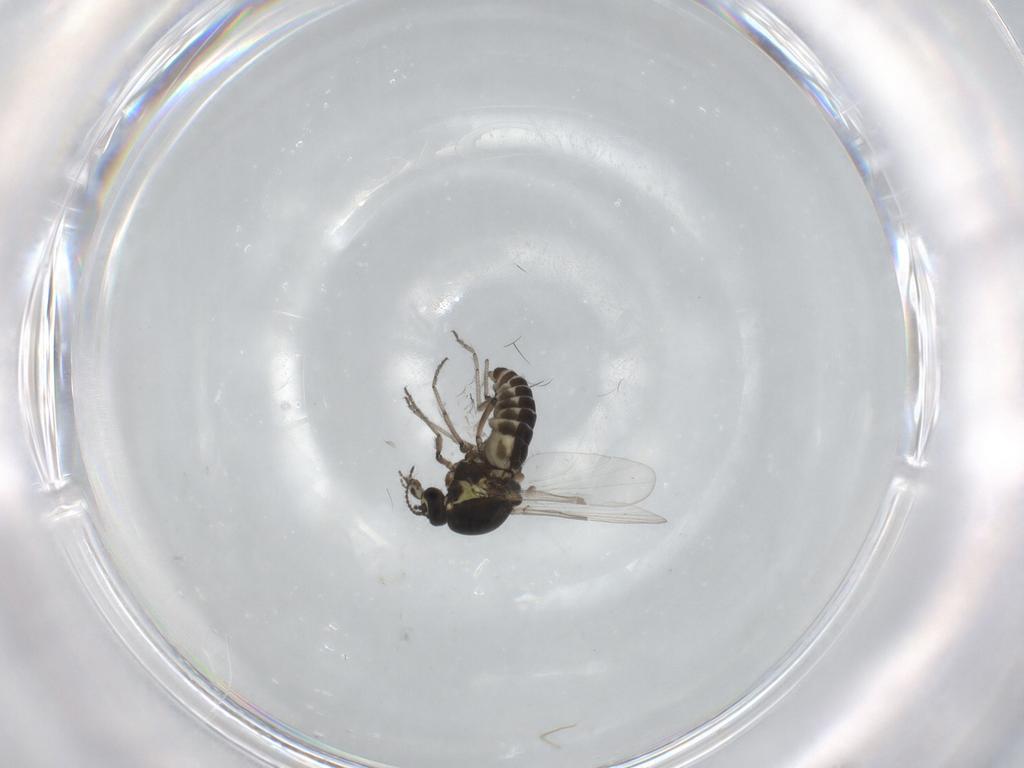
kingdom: Animalia
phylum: Arthropoda
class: Insecta
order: Diptera
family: Ceratopogonidae
